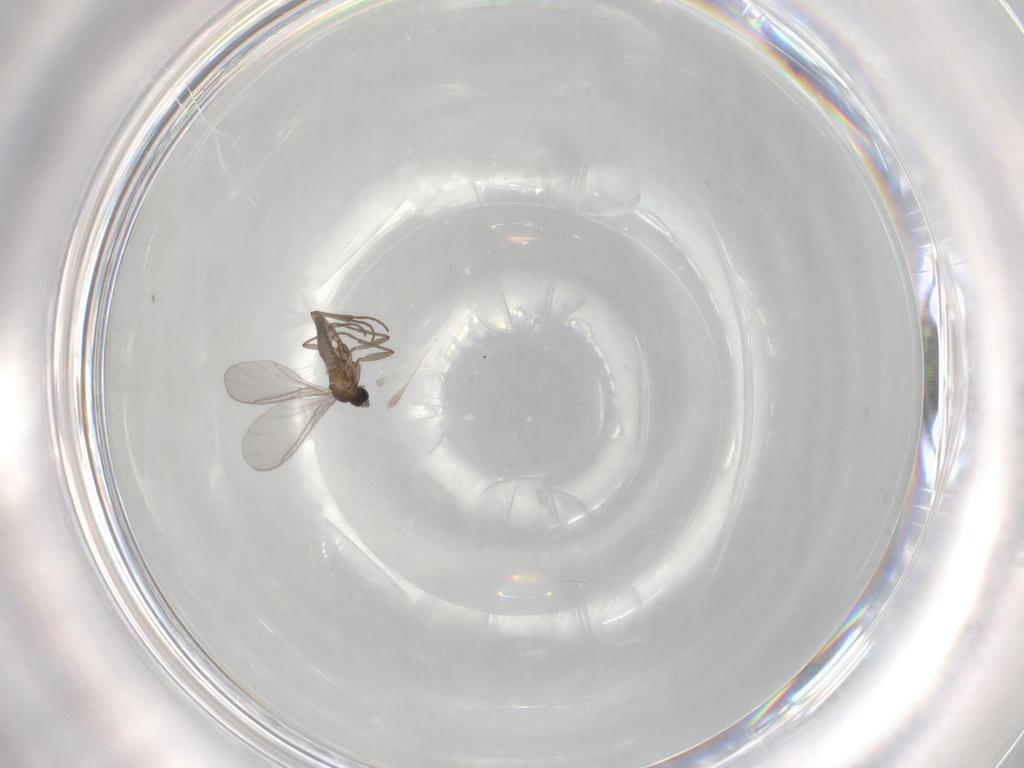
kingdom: Animalia
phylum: Arthropoda
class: Insecta
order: Diptera
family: Sciaridae
